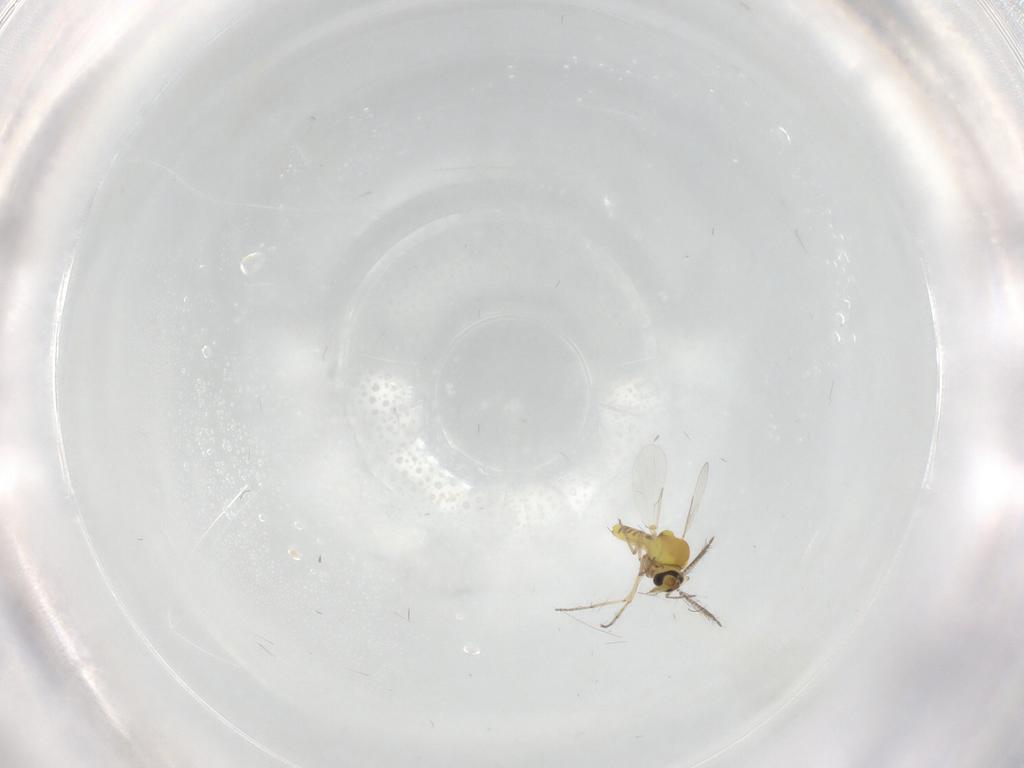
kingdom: Animalia
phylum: Arthropoda
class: Insecta
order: Diptera
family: Ceratopogonidae
